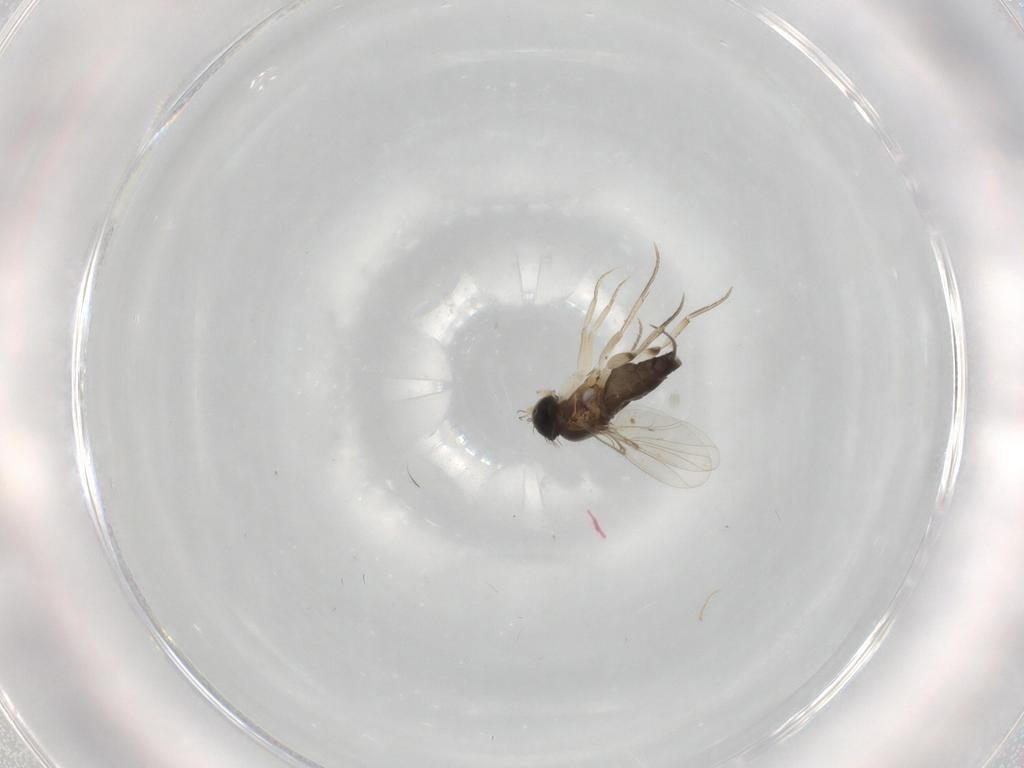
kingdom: Animalia
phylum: Arthropoda
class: Insecta
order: Diptera
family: Phoridae
